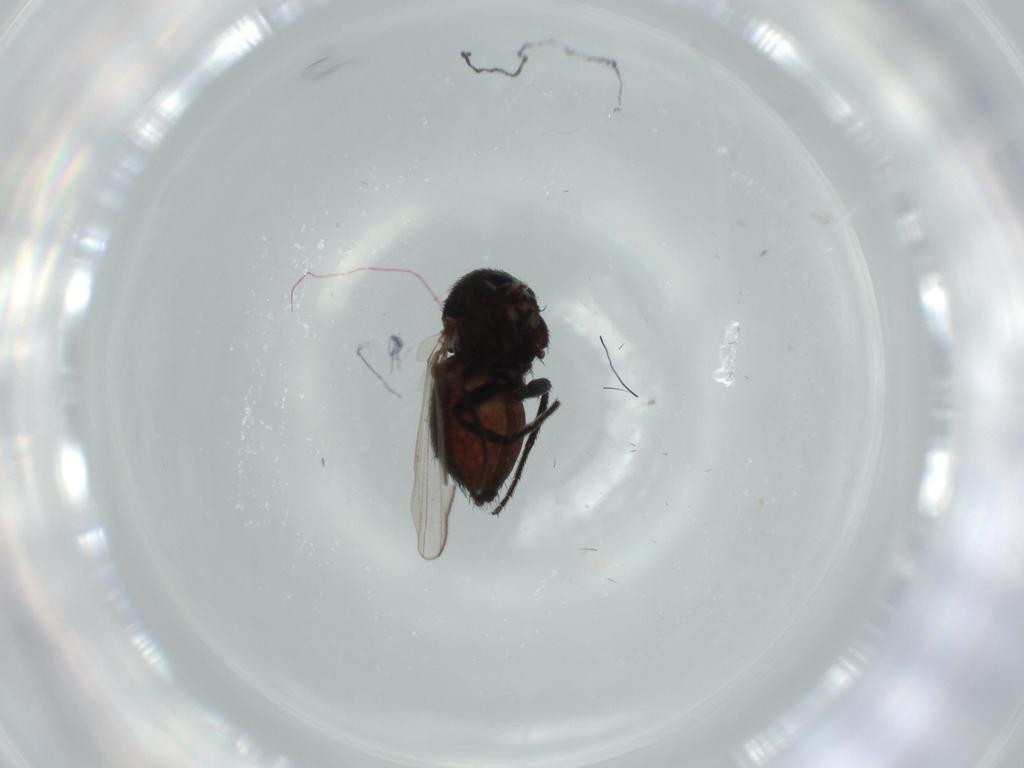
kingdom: Animalia
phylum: Arthropoda
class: Insecta
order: Diptera
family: Milichiidae
